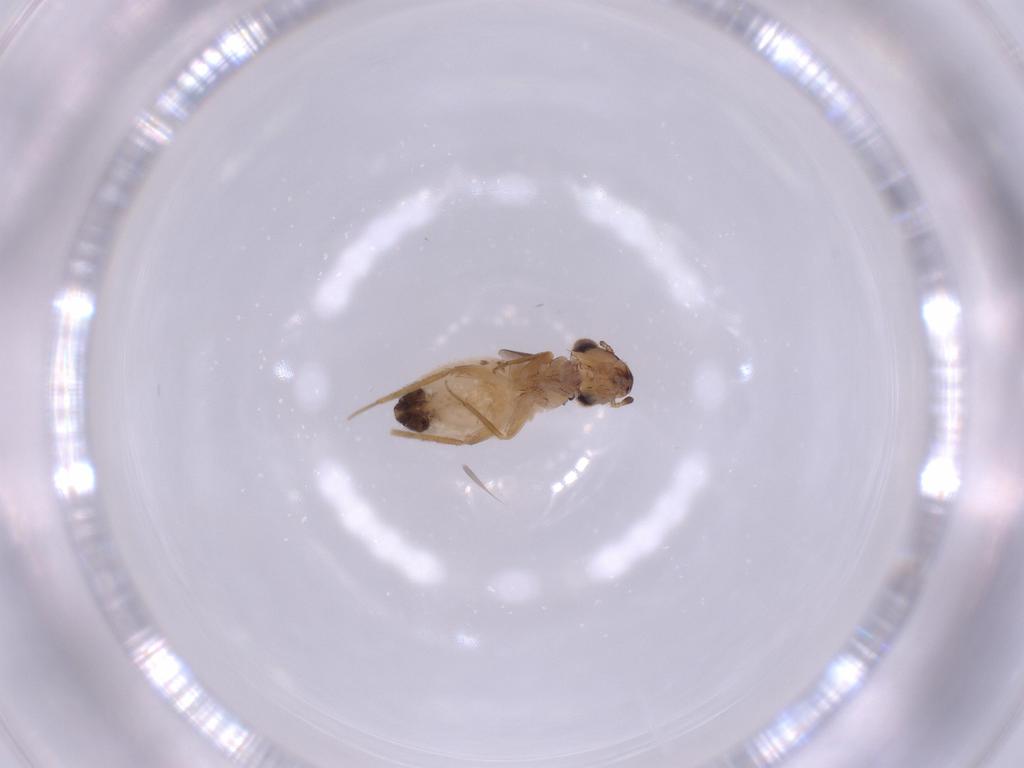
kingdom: Animalia
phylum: Arthropoda
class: Insecta
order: Psocodea
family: Lepidopsocidae
